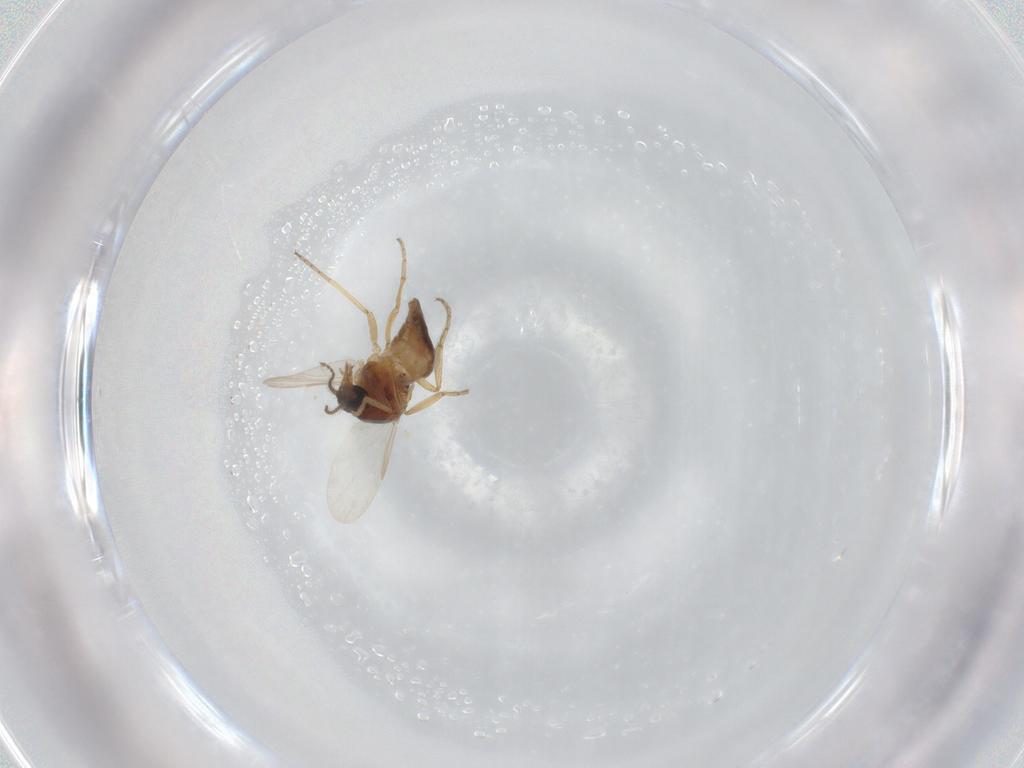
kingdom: Animalia
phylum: Arthropoda
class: Insecta
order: Diptera
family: Ceratopogonidae
